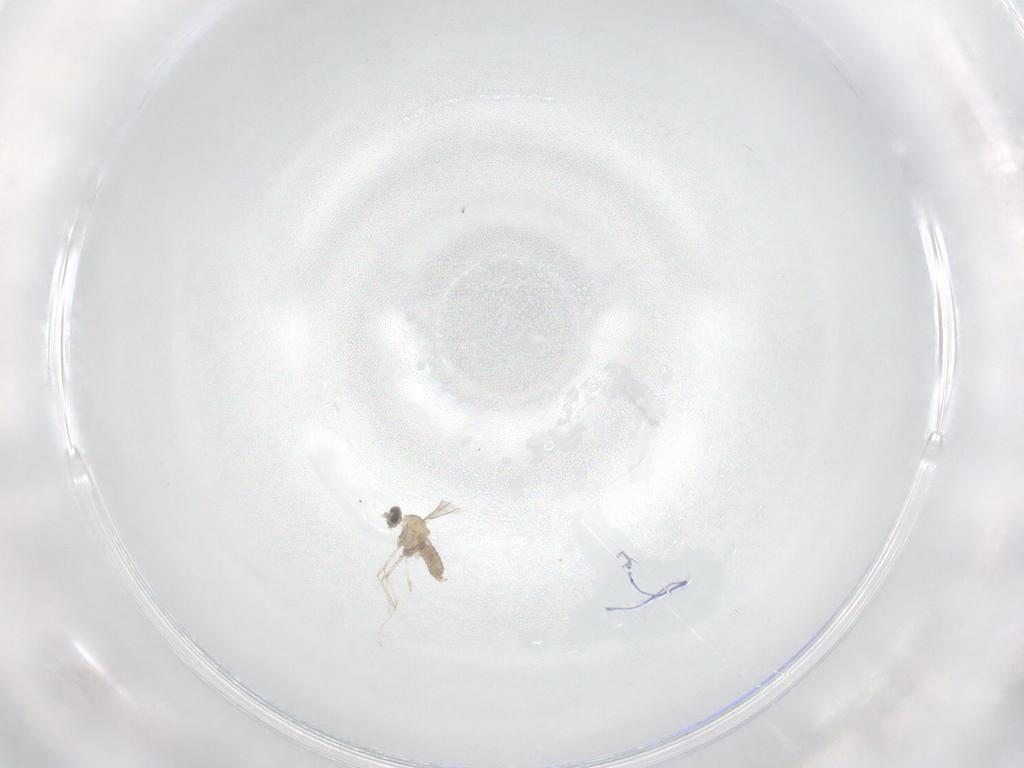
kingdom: Animalia
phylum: Arthropoda
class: Insecta
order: Diptera
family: Cecidomyiidae
